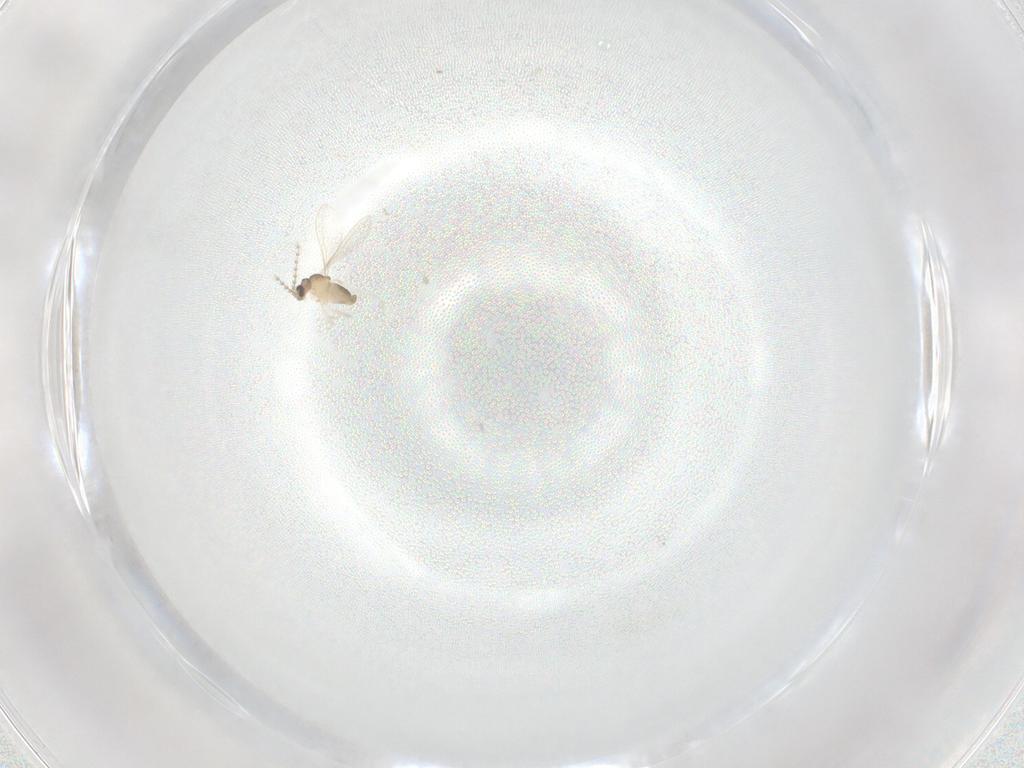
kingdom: Animalia
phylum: Arthropoda
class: Insecta
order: Diptera
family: Cecidomyiidae
